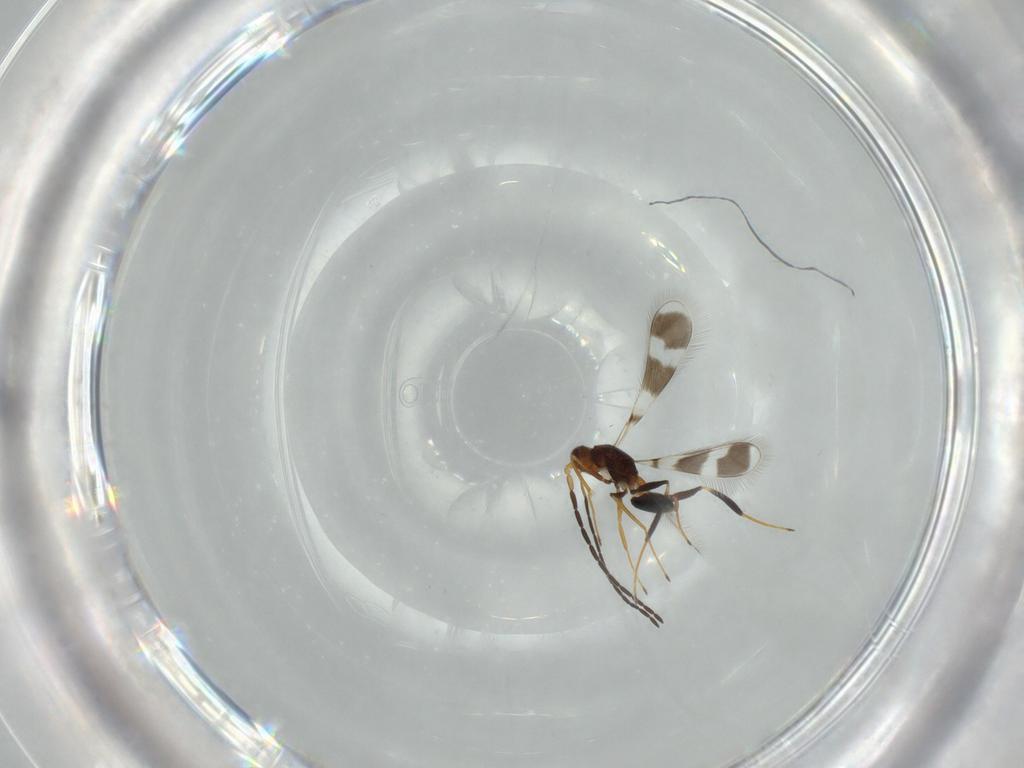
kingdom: Animalia
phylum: Arthropoda
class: Insecta
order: Hymenoptera
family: Mymaridae
